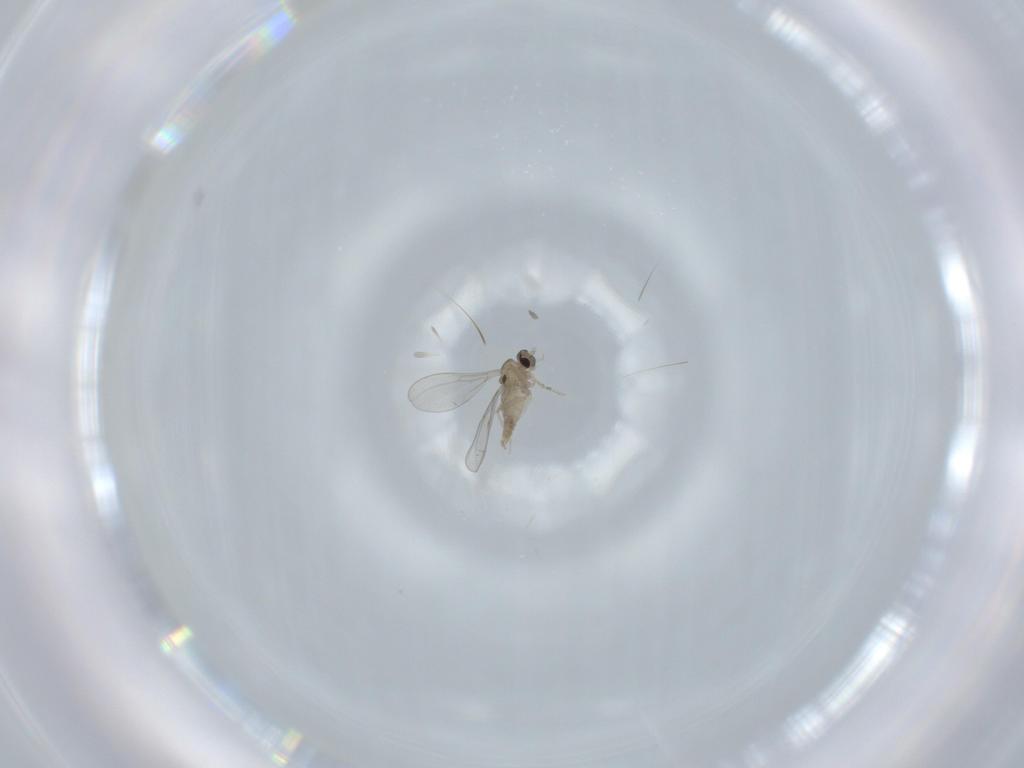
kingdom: Animalia
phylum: Arthropoda
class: Insecta
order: Diptera
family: Cecidomyiidae
